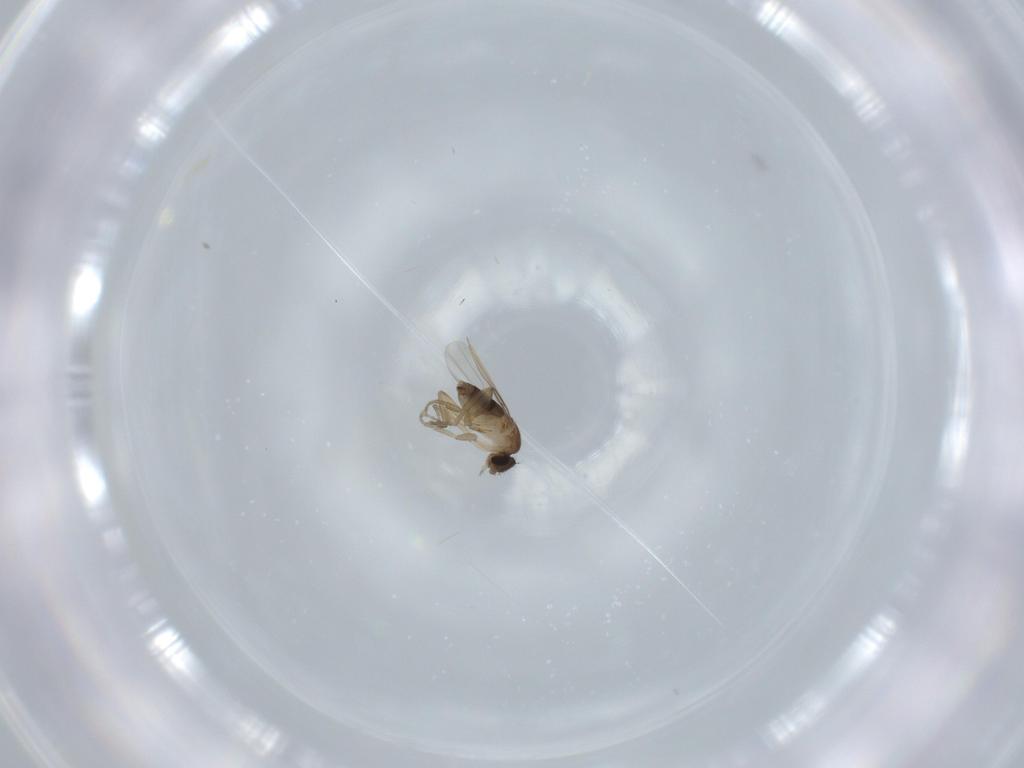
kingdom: Animalia
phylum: Arthropoda
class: Insecta
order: Diptera
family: Phoridae
